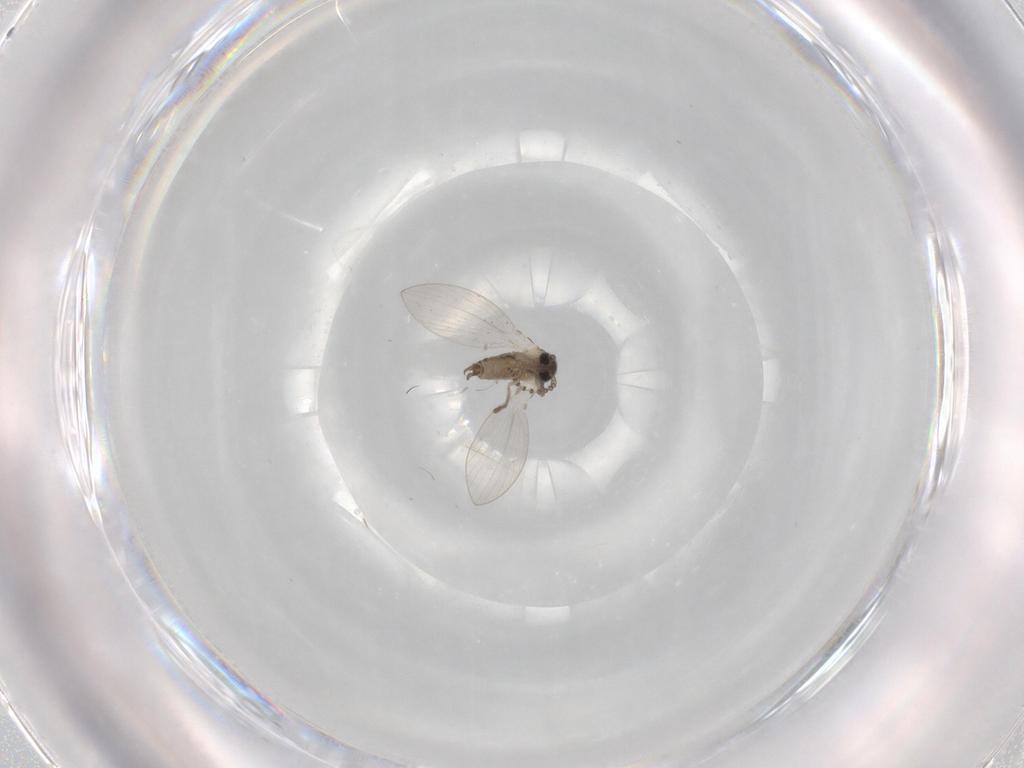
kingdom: Animalia
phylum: Arthropoda
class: Insecta
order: Diptera
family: Psychodidae
